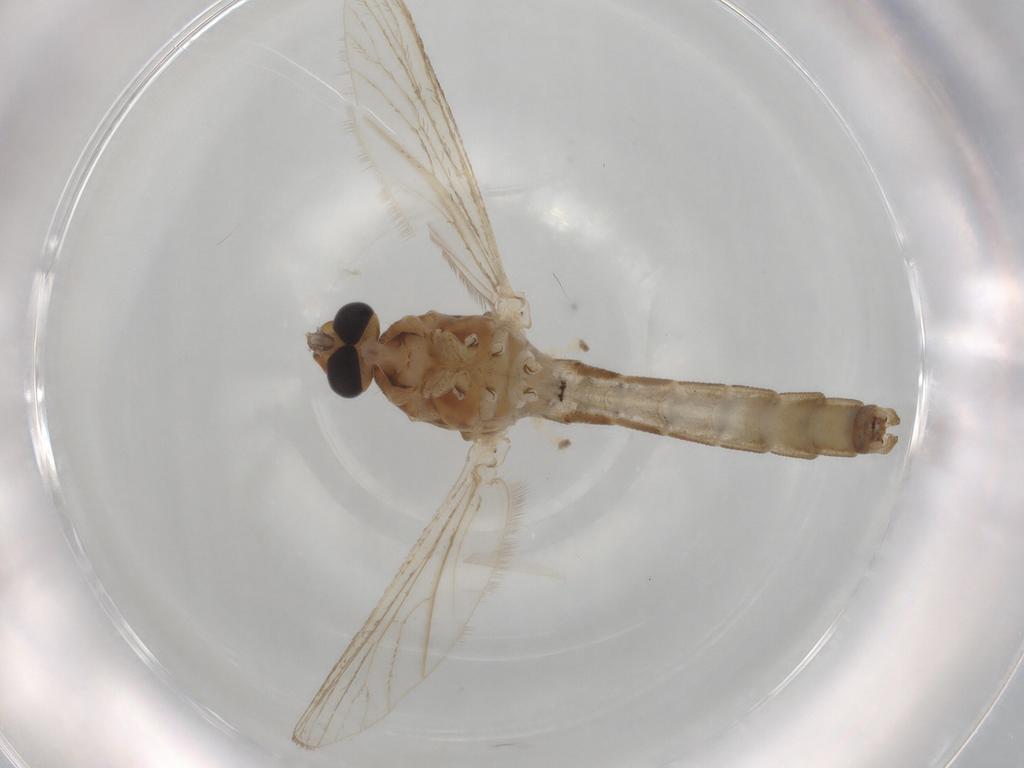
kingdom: Animalia
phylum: Arthropoda
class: Insecta
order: Diptera
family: Culicidae
